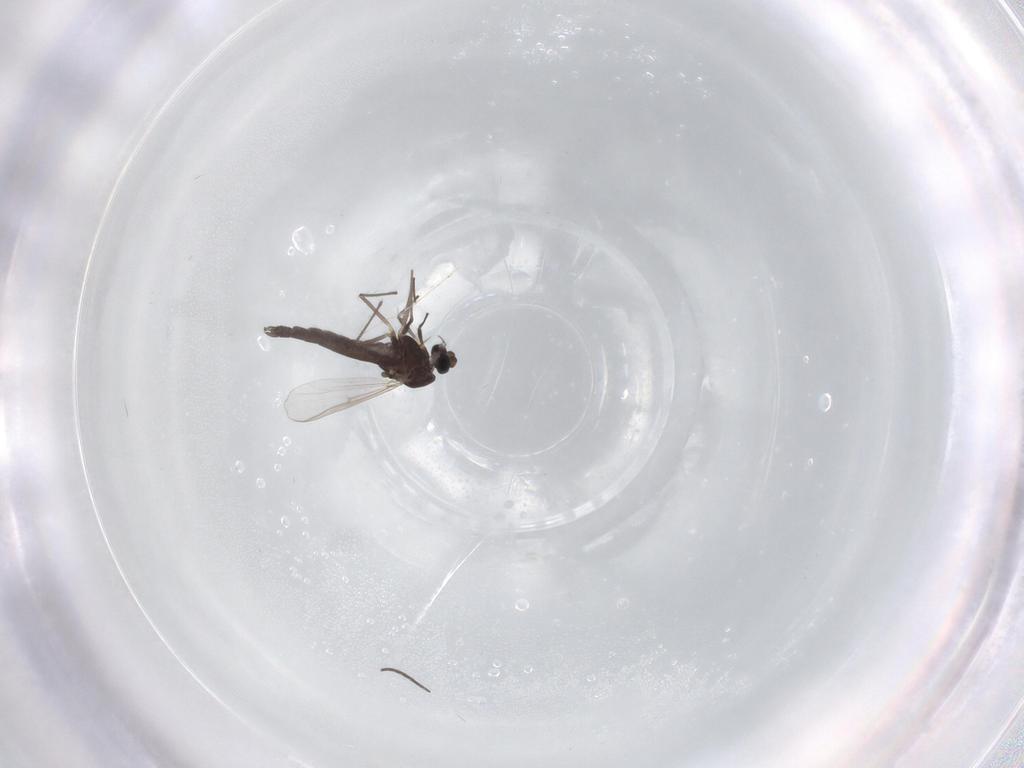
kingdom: Animalia
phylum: Arthropoda
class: Insecta
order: Diptera
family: Chironomidae
